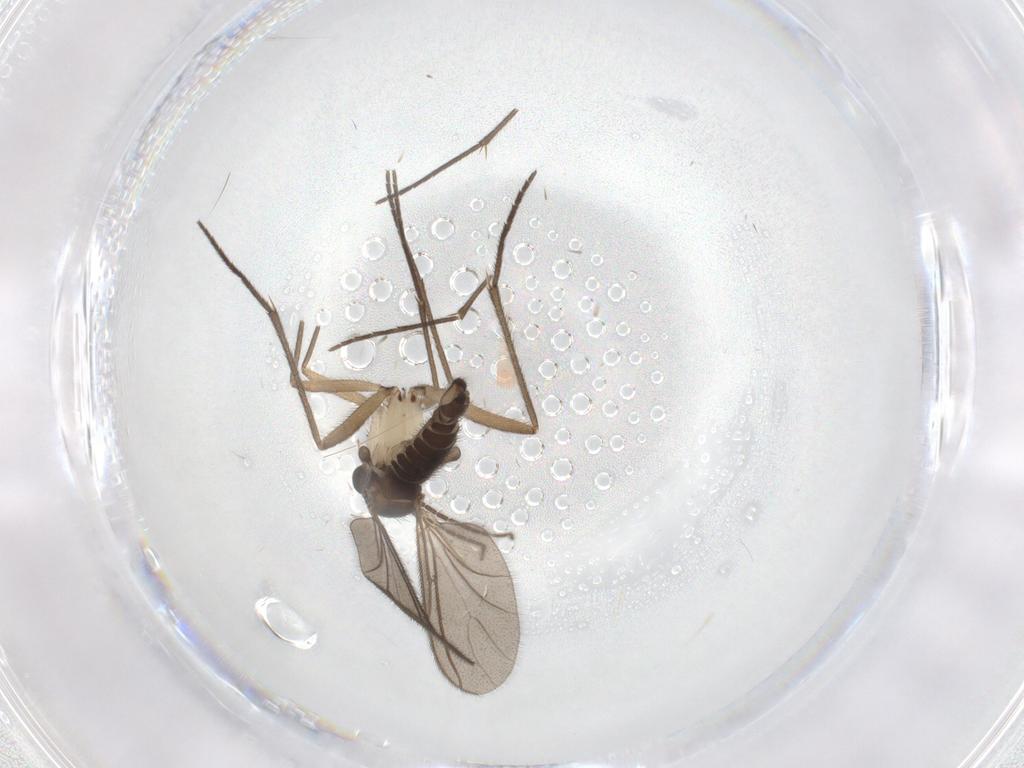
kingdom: Animalia
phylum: Arthropoda
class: Insecta
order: Diptera
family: Sciaridae
